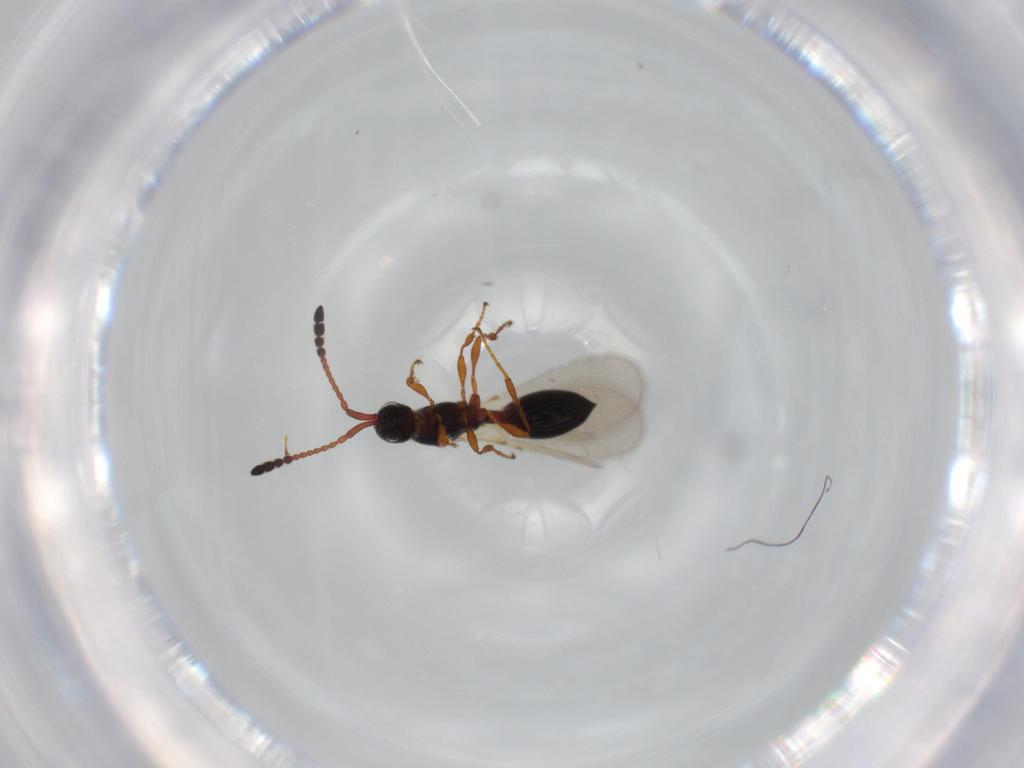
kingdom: Animalia
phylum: Arthropoda
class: Insecta
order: Hymenoptera
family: Diapriidae
